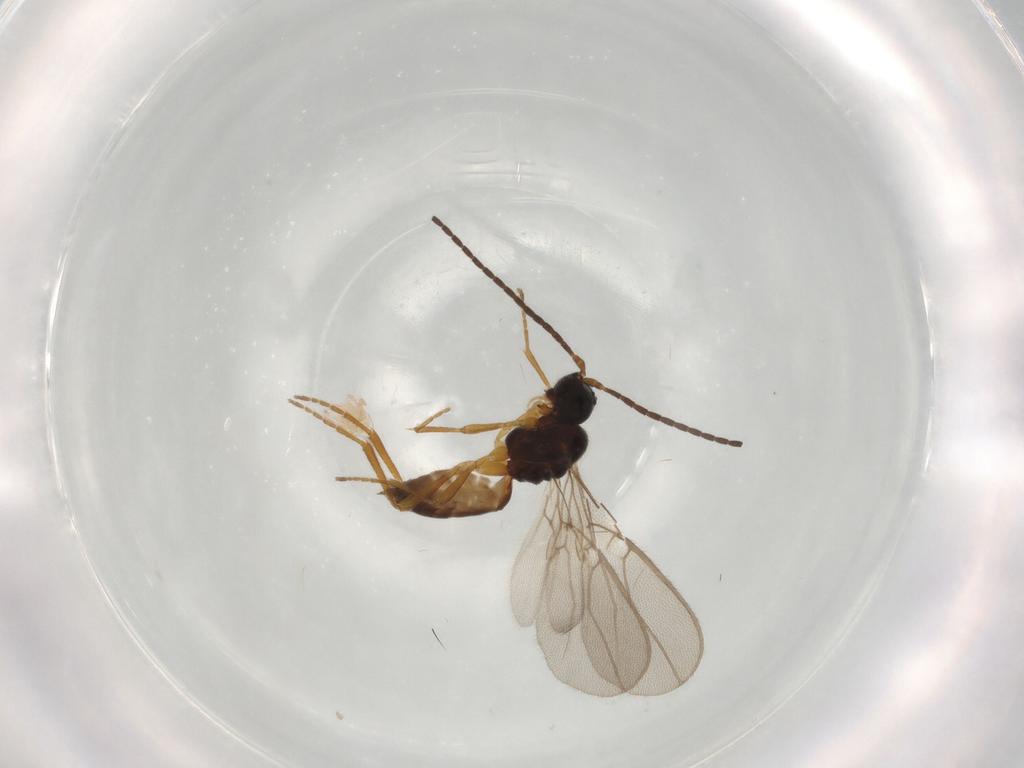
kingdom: Animalia
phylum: Arthropoda
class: Insecta
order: Hymenoptera
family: Braconidae
